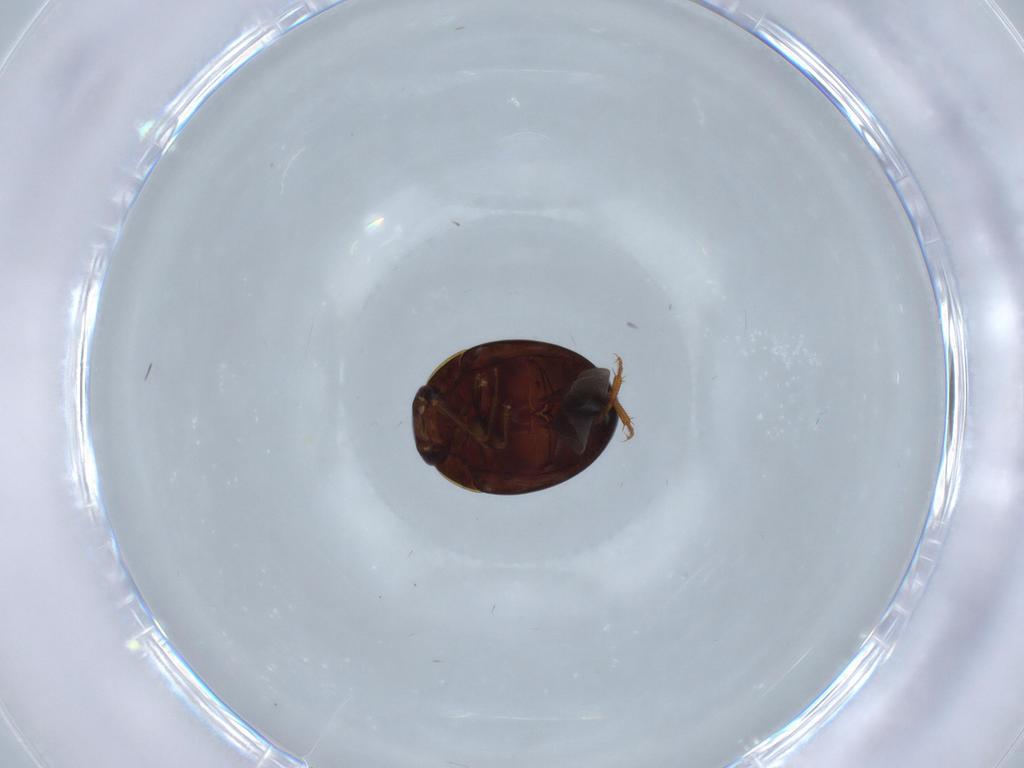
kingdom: Animalia
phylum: Arthropoda
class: Insecta
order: Coleoptera
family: Leiodidae
